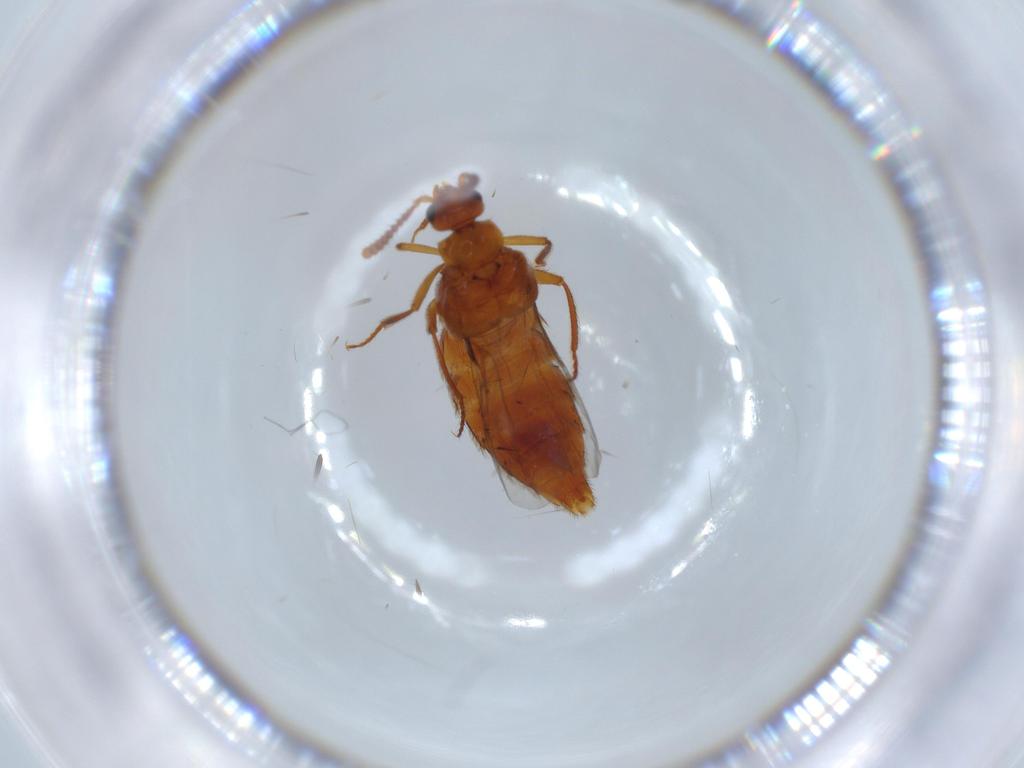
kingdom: Animalia
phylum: Arthropoda
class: Insecta
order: Coleoptera
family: Staphylinidae
